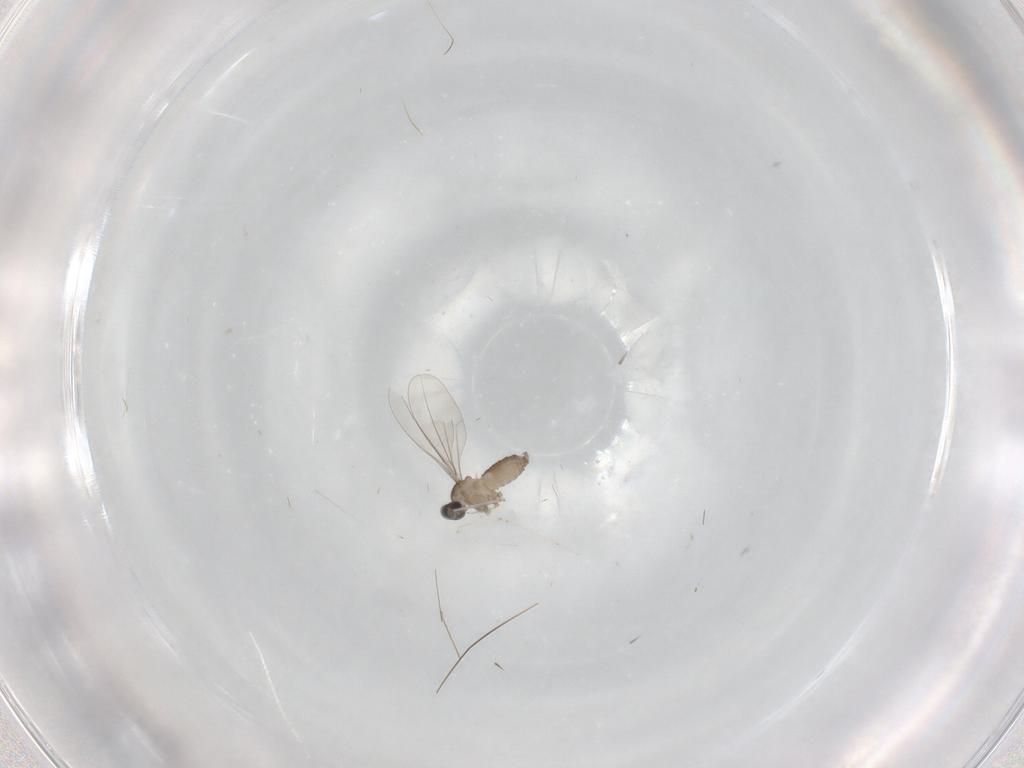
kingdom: Animalia
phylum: Arthropoda
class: Insecta
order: Diptera
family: Cecidomyiidae
